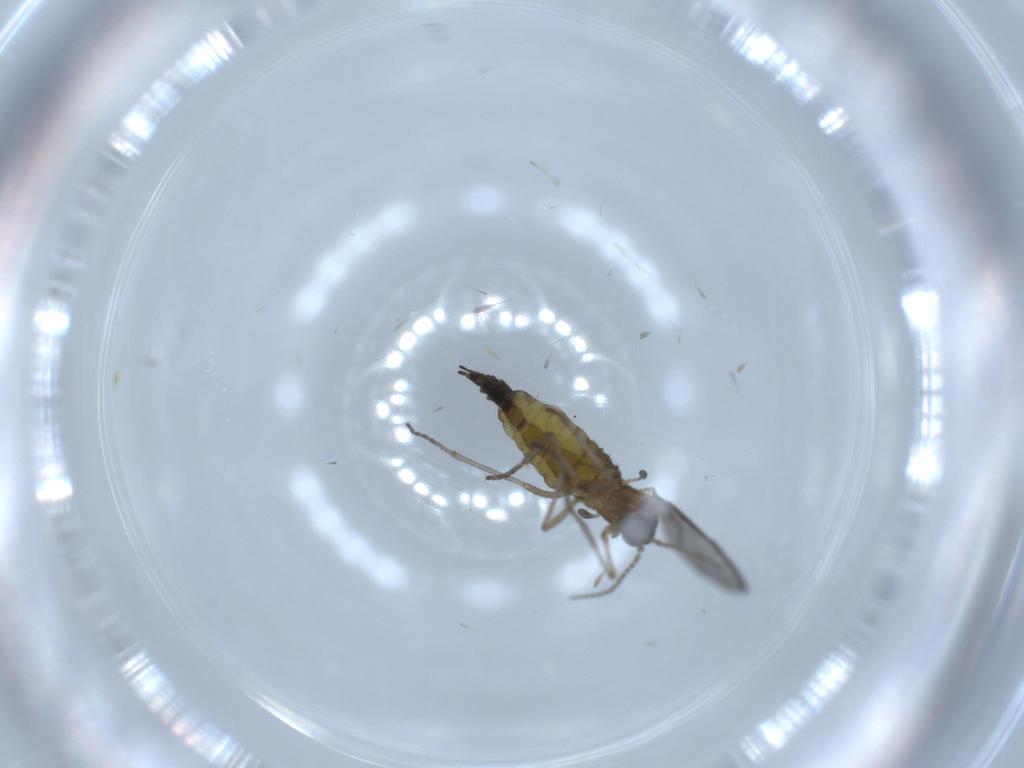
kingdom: Animalia
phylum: Arthropoda
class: Insecta
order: Diptera
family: Sciaridae
